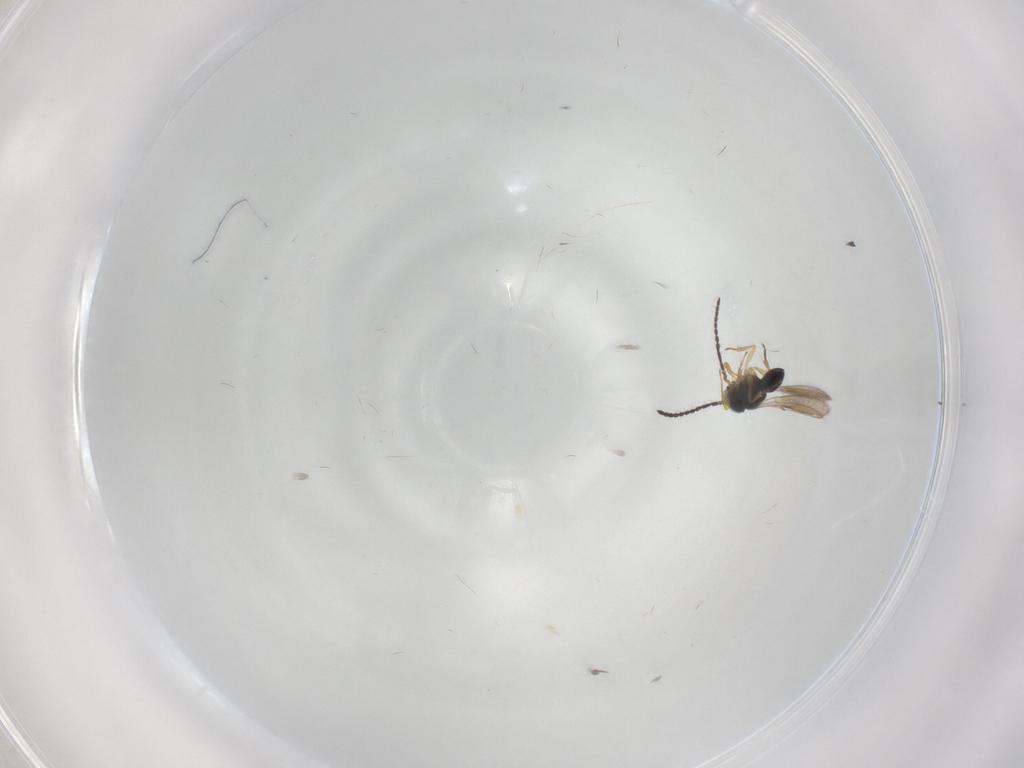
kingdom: Animalia
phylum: Arthropoda
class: Insecta
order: Hymenoptera
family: Scelionidae
